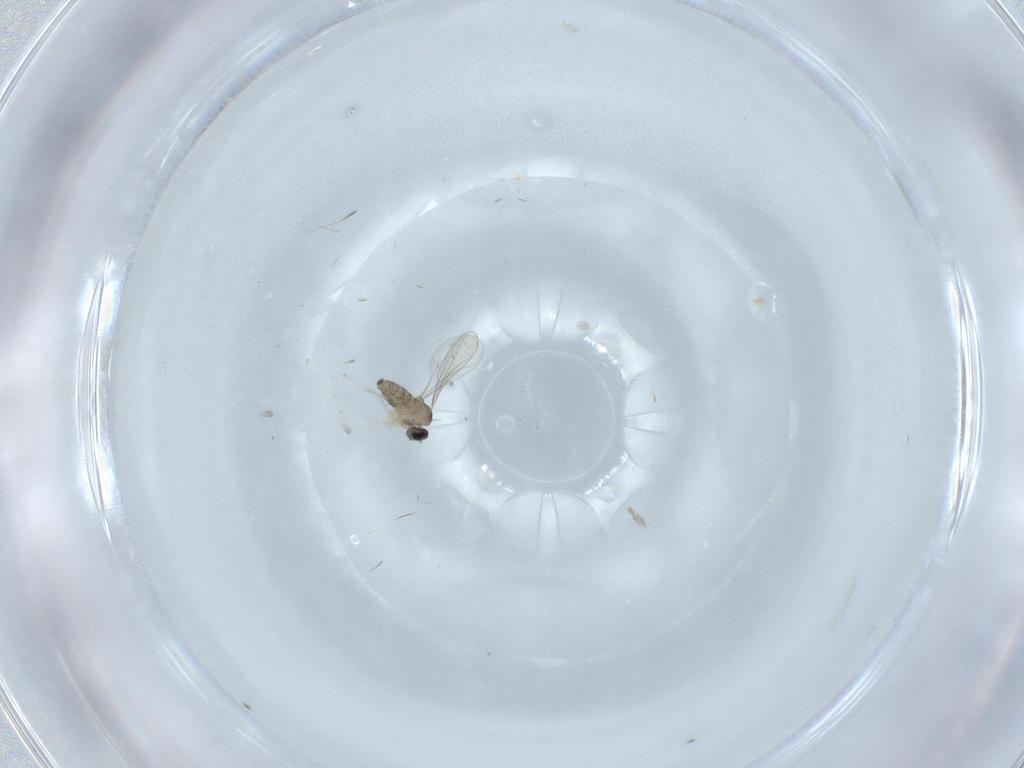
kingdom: Animalia
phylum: Arthropoda
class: Insecta
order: Diptera
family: Cecidomyiidae
